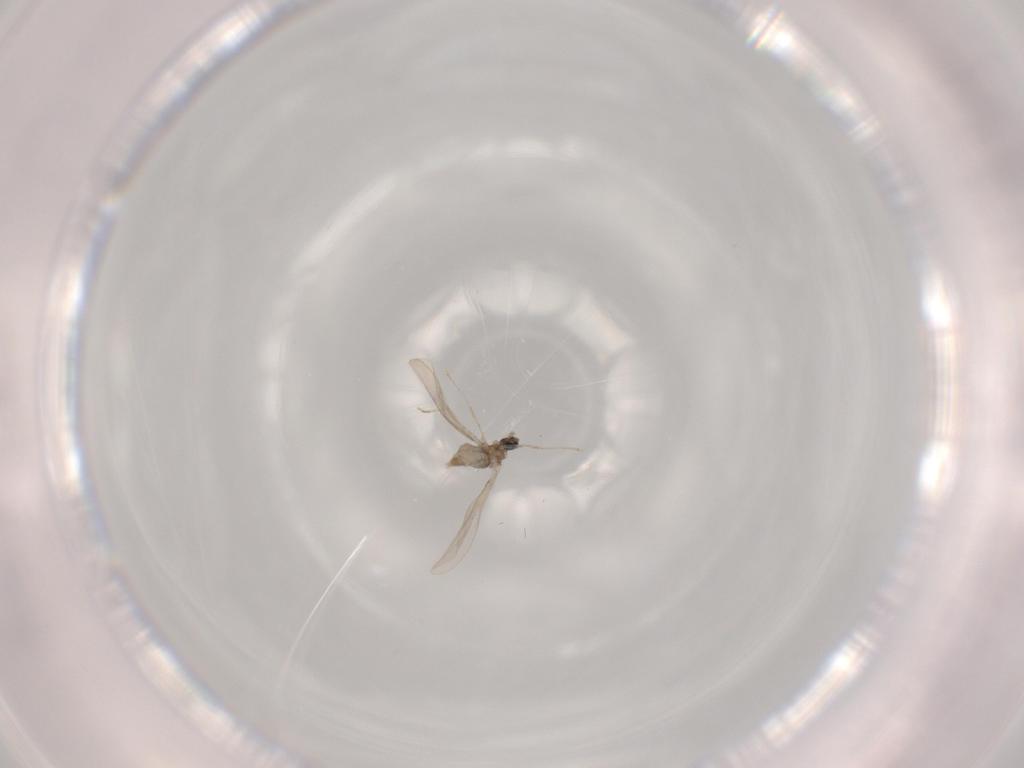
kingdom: Animalia
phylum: Arthropoda
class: Insecta
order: Diptera
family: Cecidomyiidae
